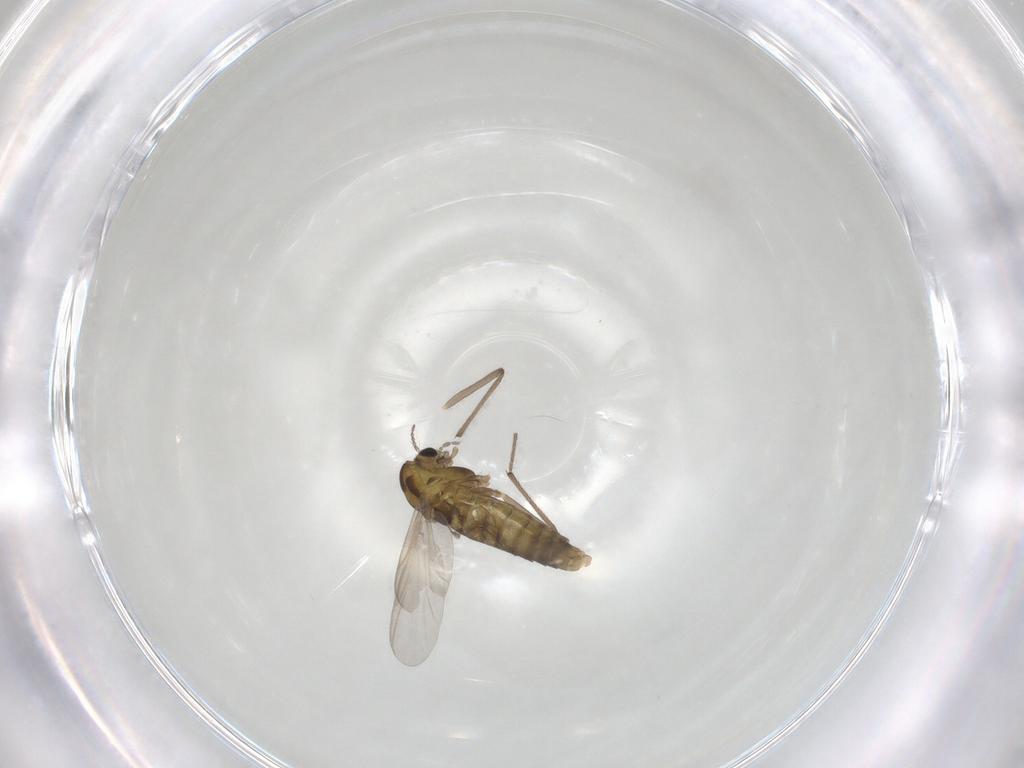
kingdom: Animalia
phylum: Arthropoda
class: Insecta
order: Diptera
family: Chironomidae
